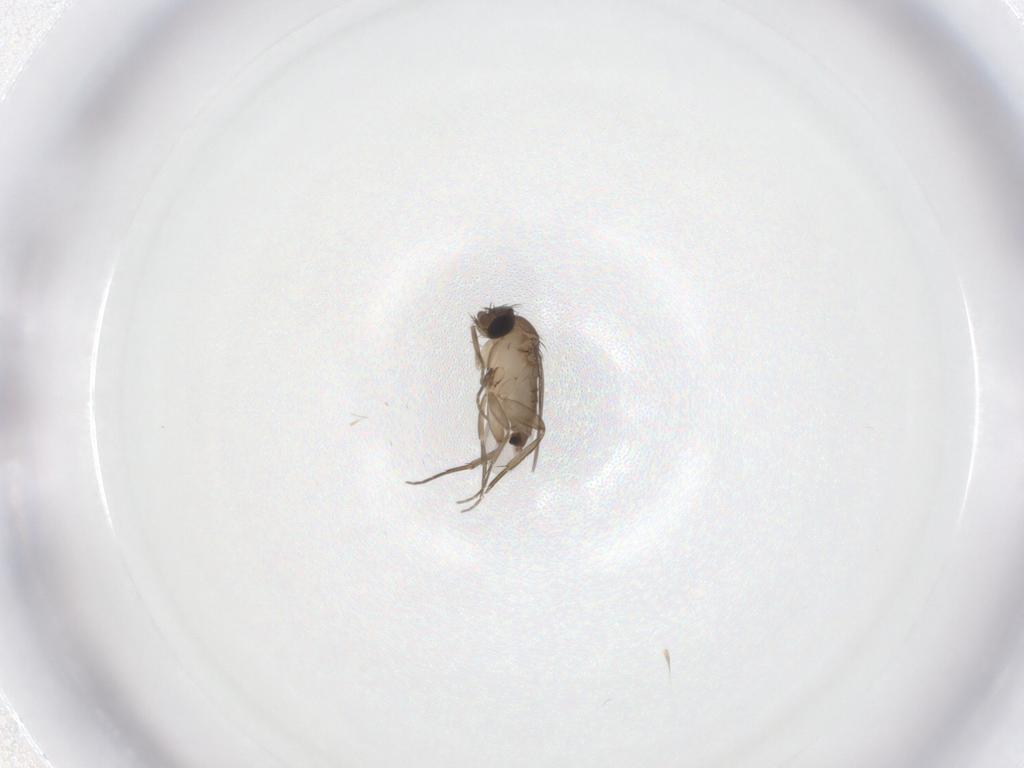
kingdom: Animalia
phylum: Arthropoda
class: Insecta
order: Diptera
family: Phoridae
